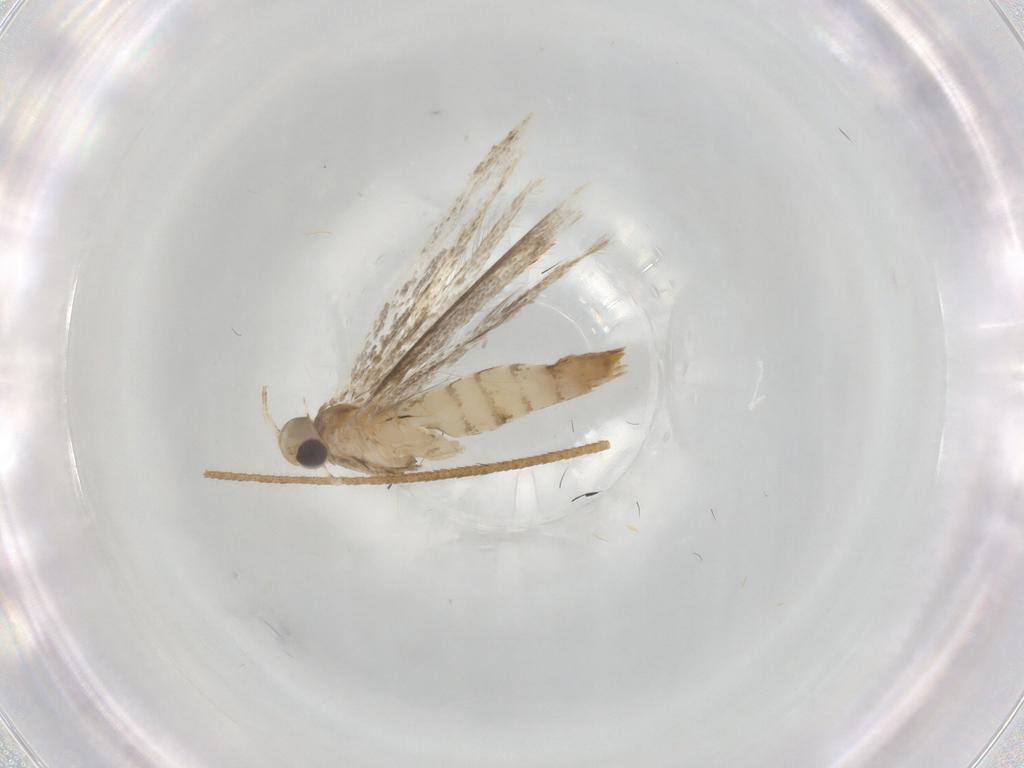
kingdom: Animalia
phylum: Arthropoda
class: Insecta
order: Lepidoptera
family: Gracillariidae
